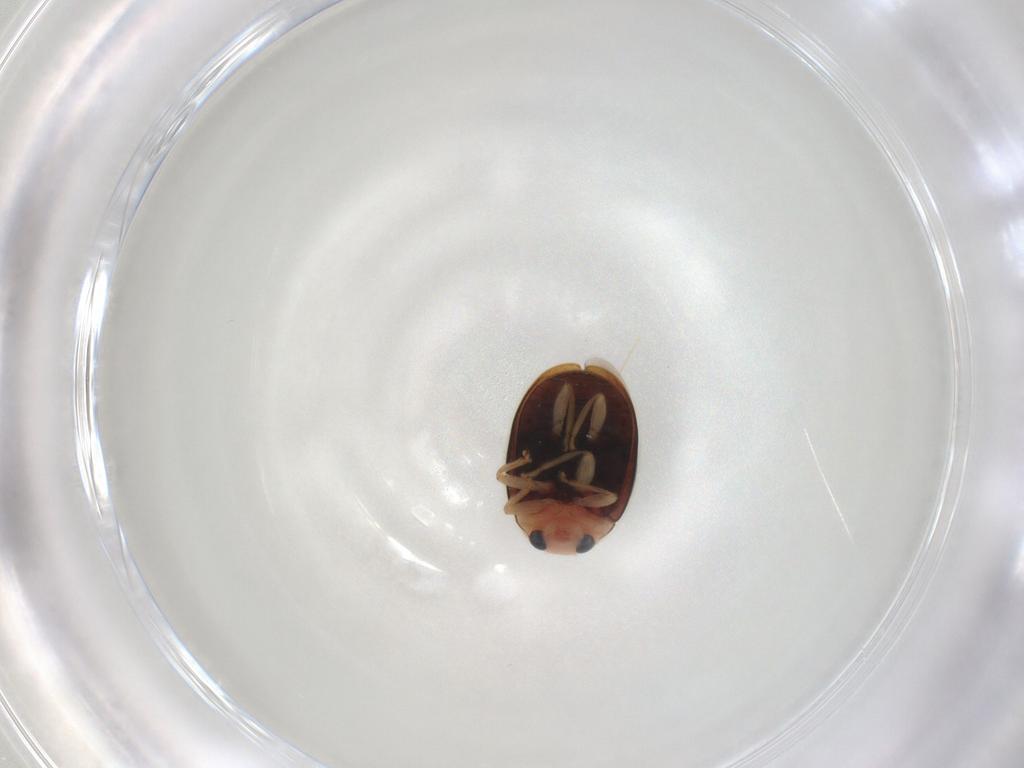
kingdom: Animalia
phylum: Arthropoda
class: Insecta
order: Coleoptera
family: Coccinellidae
